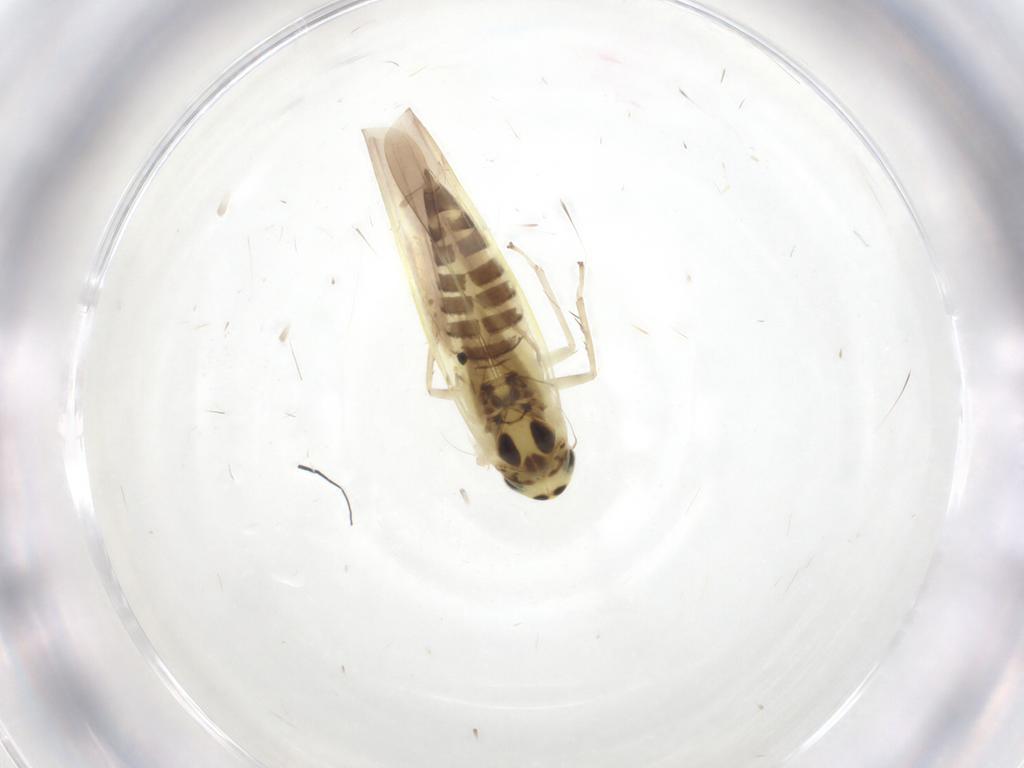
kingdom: Animalia
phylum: Arthropoda
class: Insecta
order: Hemiptera
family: Cicadellidae
